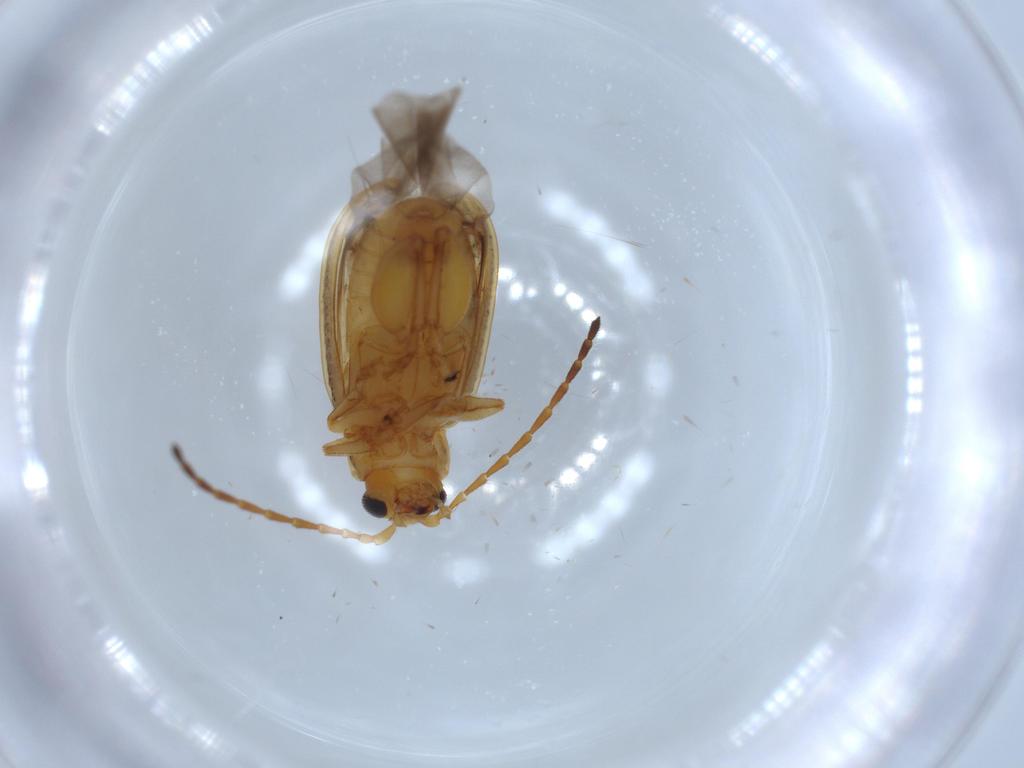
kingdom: Animalia
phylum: Arthropoda
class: Insecta
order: Coleoptera
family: Chrysomelidae
